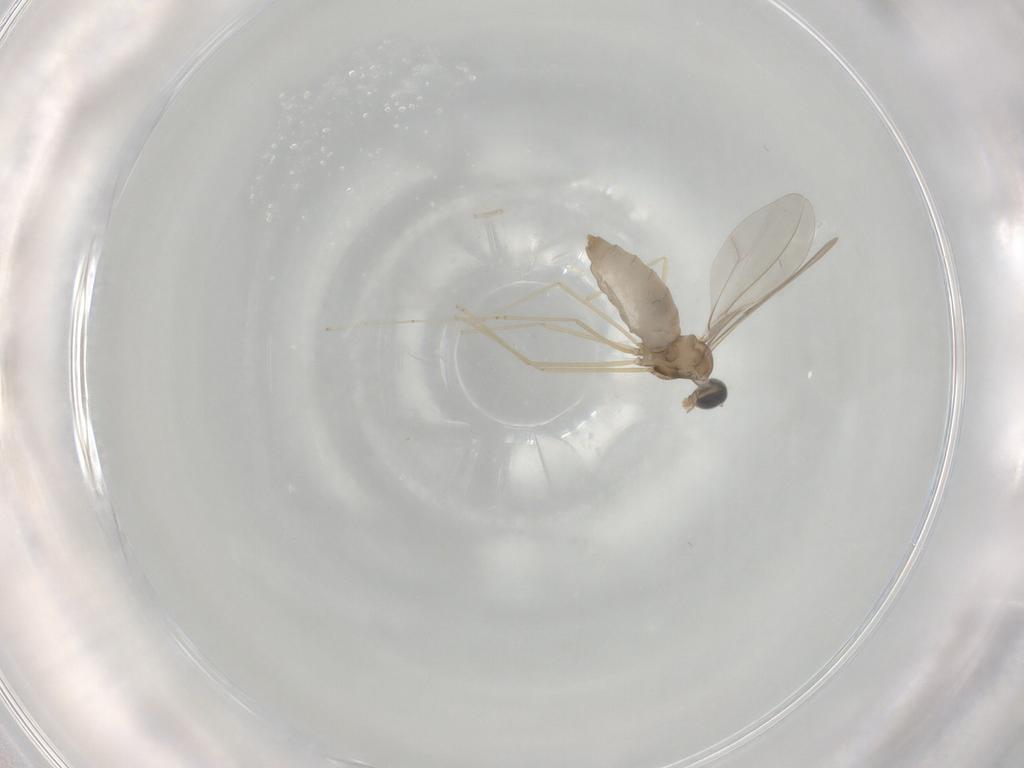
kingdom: Animalia
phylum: Arthropoda
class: Insecta
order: Diptera
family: Cecidomyiidae
